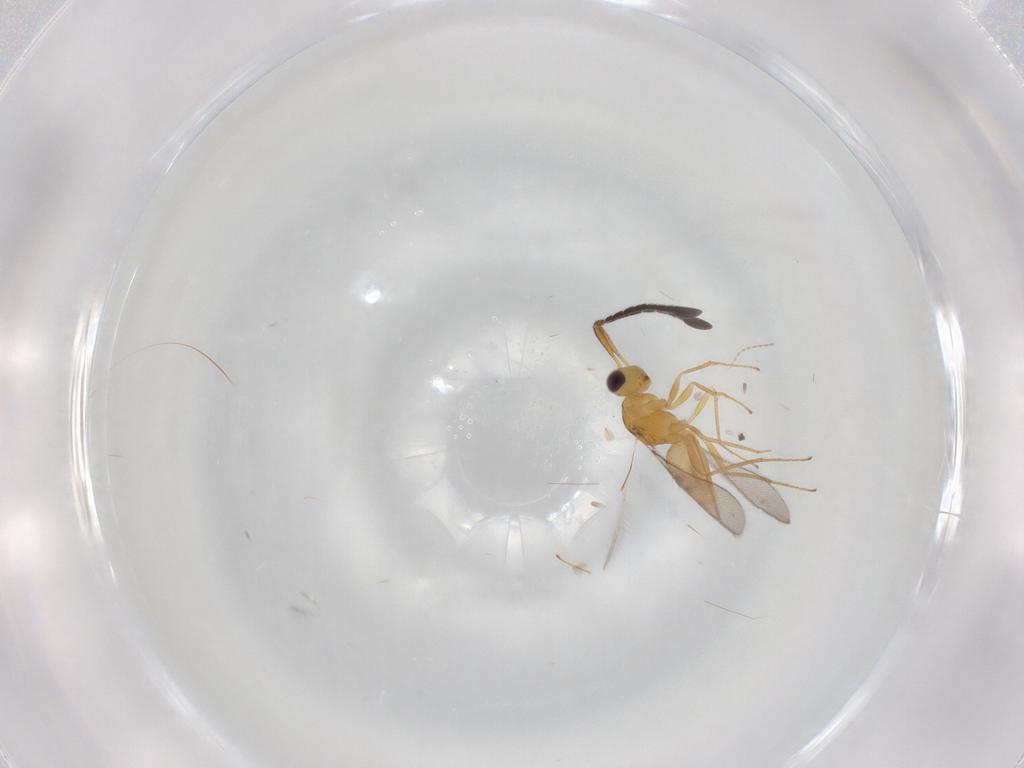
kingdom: Animalia
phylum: Arthropoda
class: Insecta
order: Hymenoptera
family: Mymaridae
